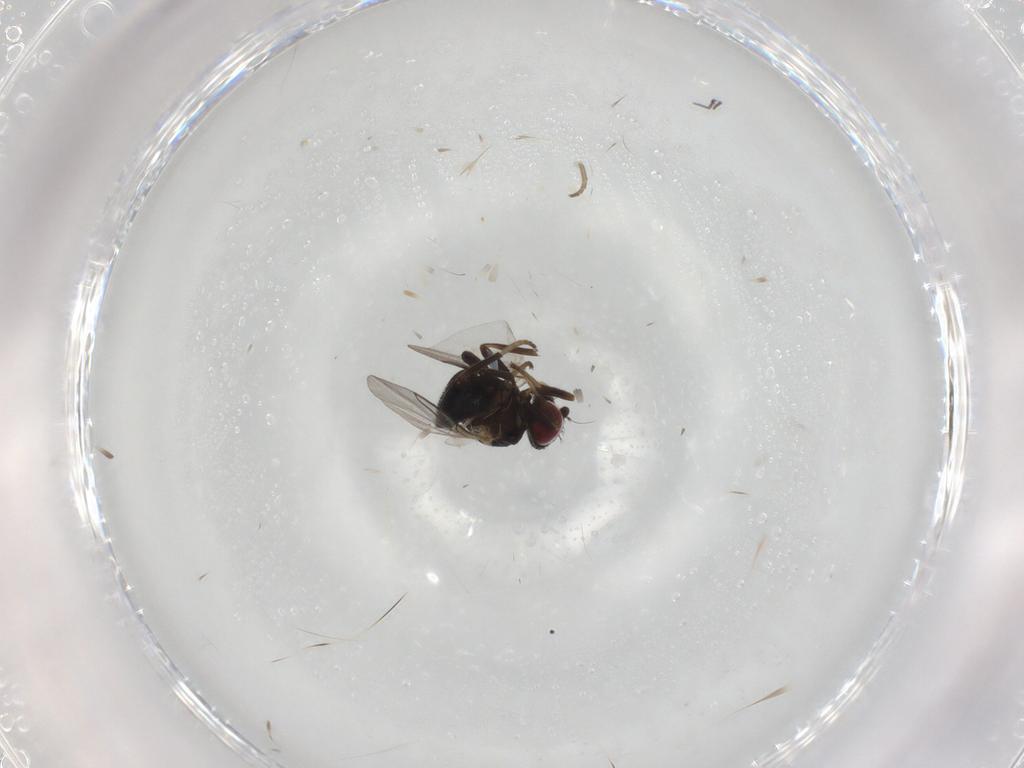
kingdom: Animalia
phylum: Arthropoda
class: Insecta
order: Diptera
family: Agromyzidae
